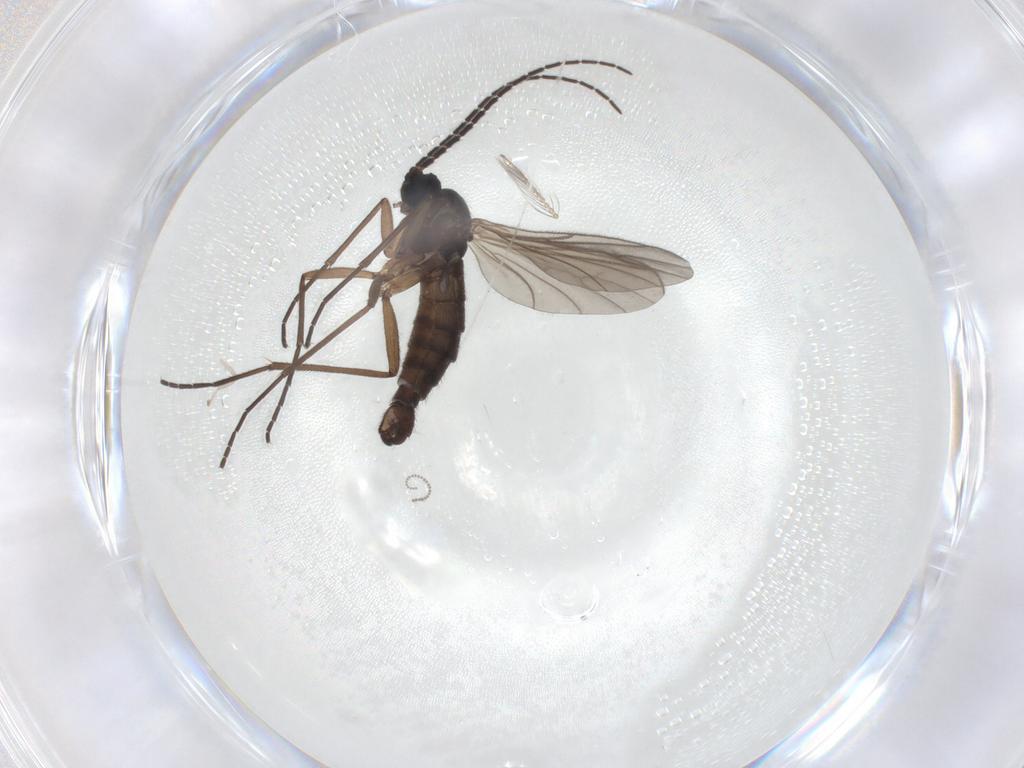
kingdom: Animalia
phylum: Arthropoda
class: Insecta
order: Diptera
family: Sciaridae
